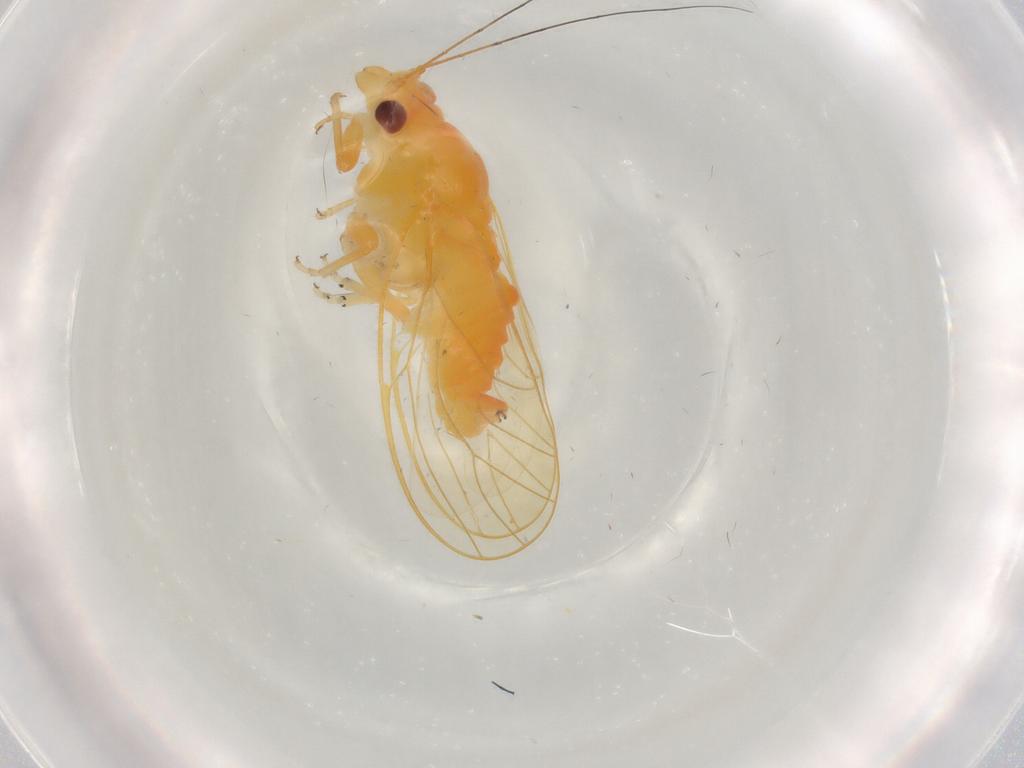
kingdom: Animalia
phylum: Arthropoda
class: Insecta
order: Hemiptera
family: Psylloidea_incertae_sedis
